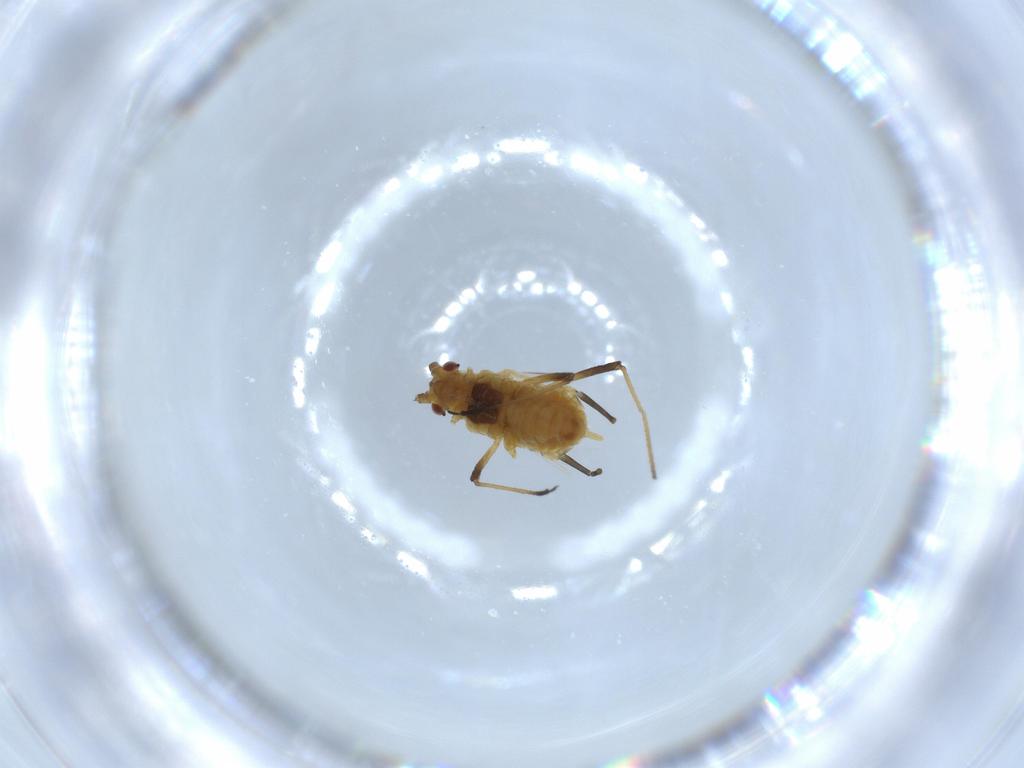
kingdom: Animalia
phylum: Arthropoda
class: Insecta
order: Hemiptera
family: Aphididae
